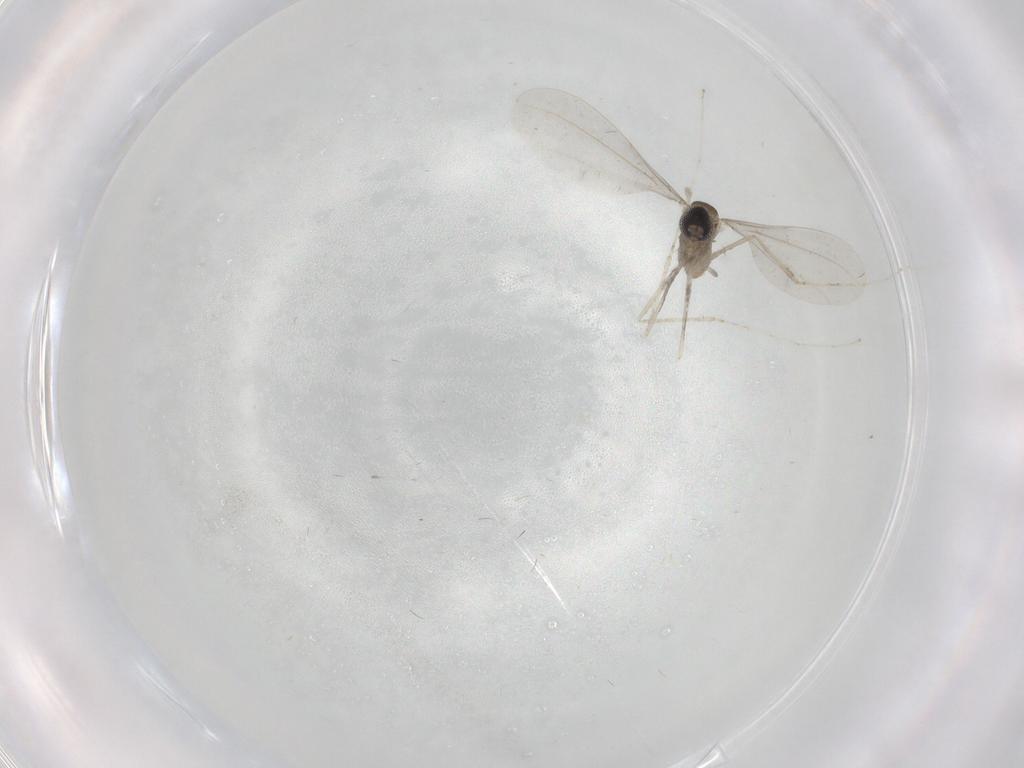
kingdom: Animalia
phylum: Arthropoda
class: Insecta
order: Diptera
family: Cecidomyiidae
